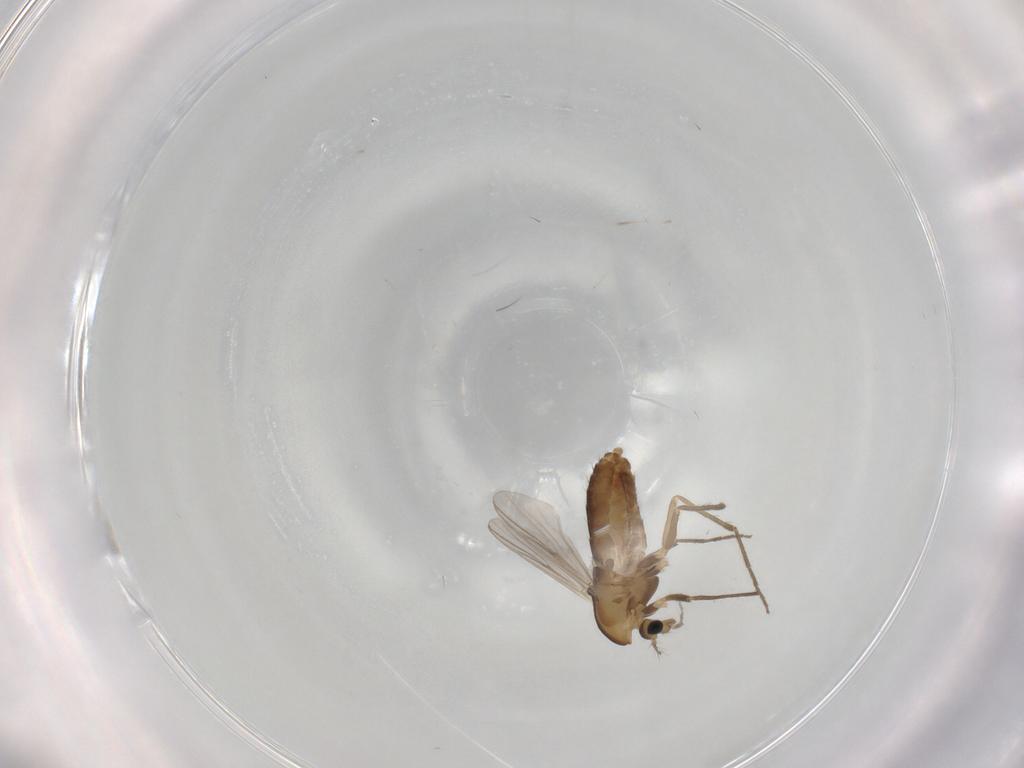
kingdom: Animalia
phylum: Arthropoda
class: Insecta
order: Diptera
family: Chironomidae
